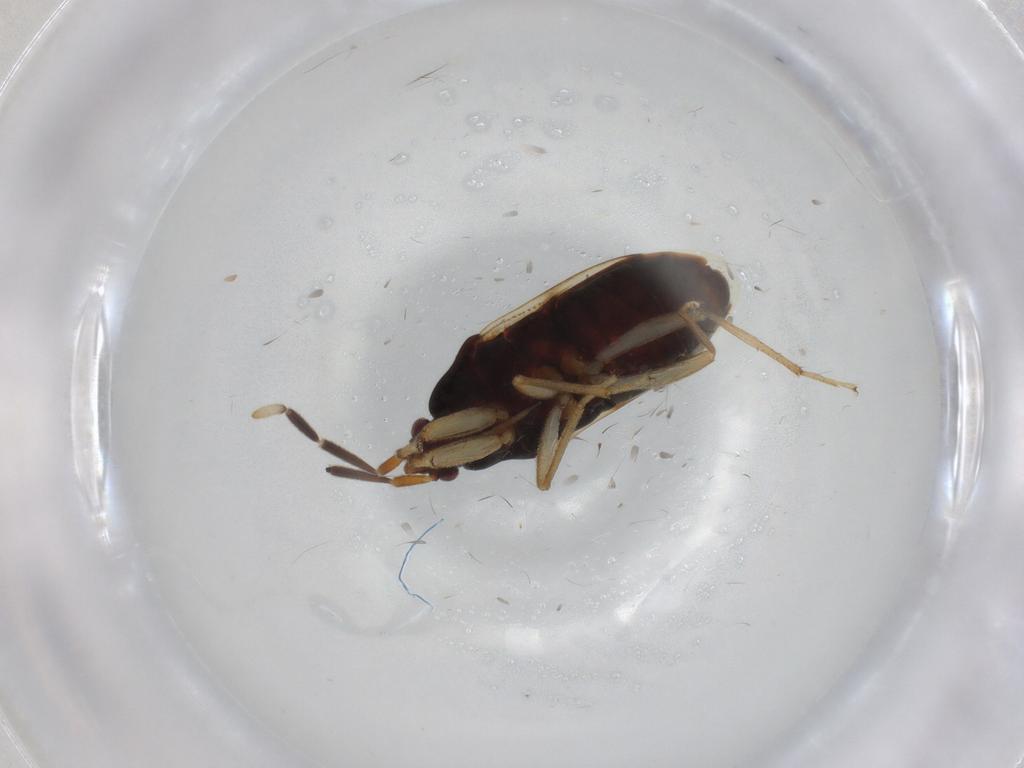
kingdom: Animalia
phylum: Arthropoda
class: Insecta
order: Hemiptera
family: Rhyparochromidae
